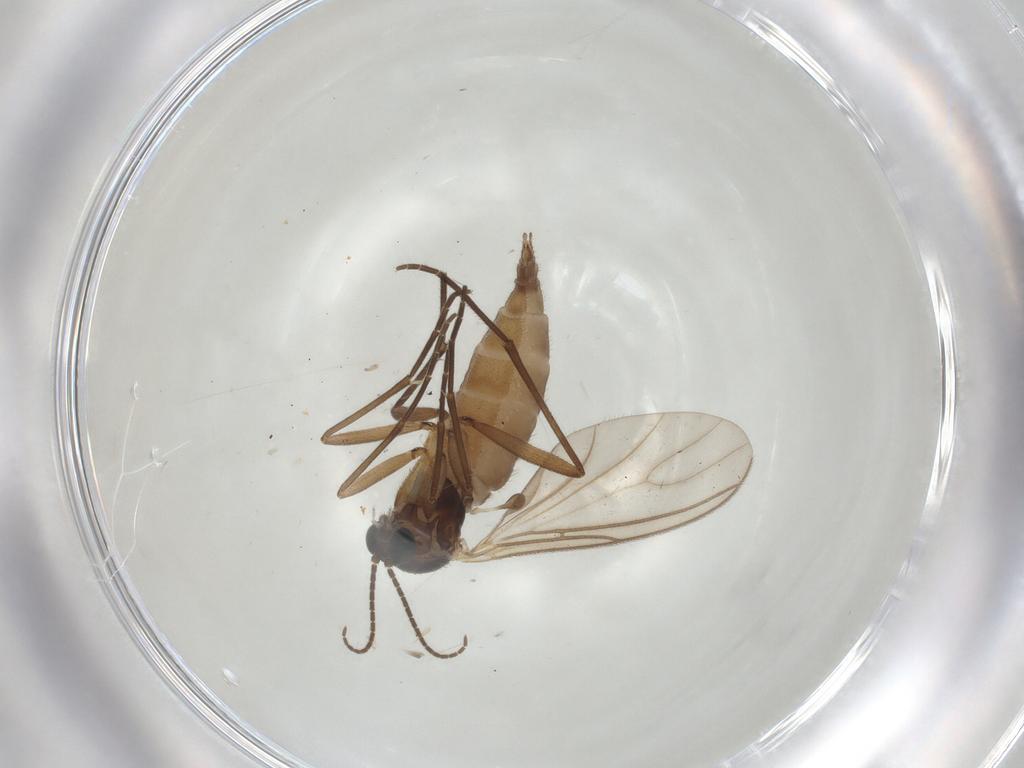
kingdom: Animalia
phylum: Arthropoda
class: Insecta
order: Diptera
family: Sciaridae
